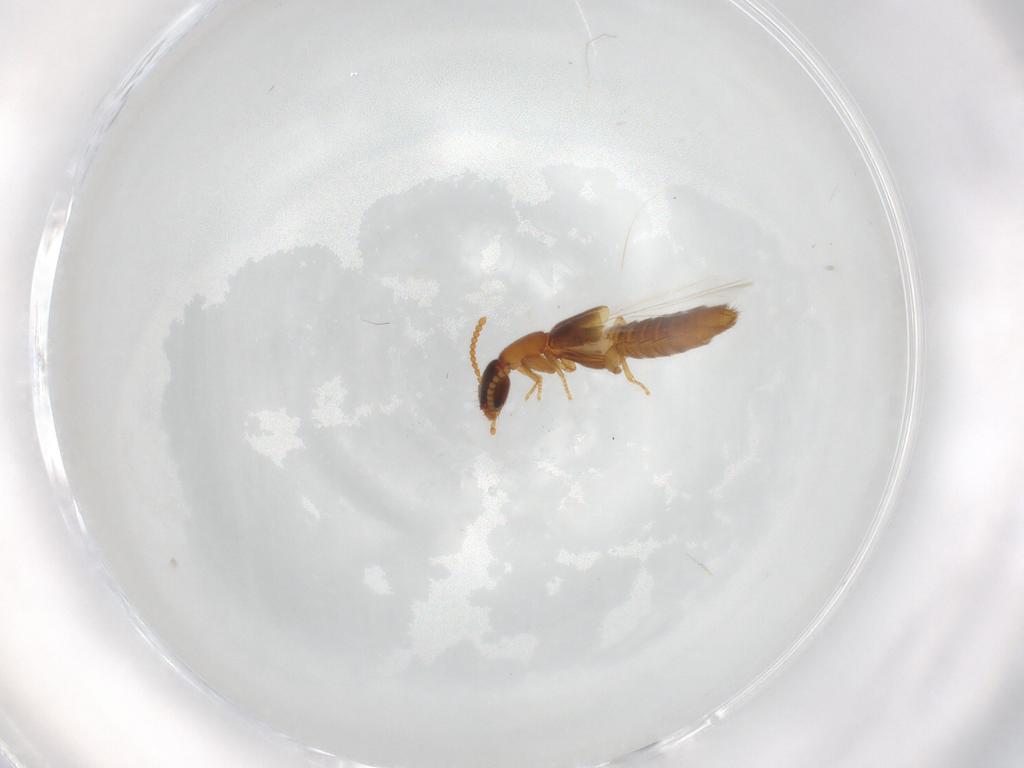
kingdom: Animalia
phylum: Arthropoda
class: Insecta
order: Coleoptera
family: Hydrophilidae
